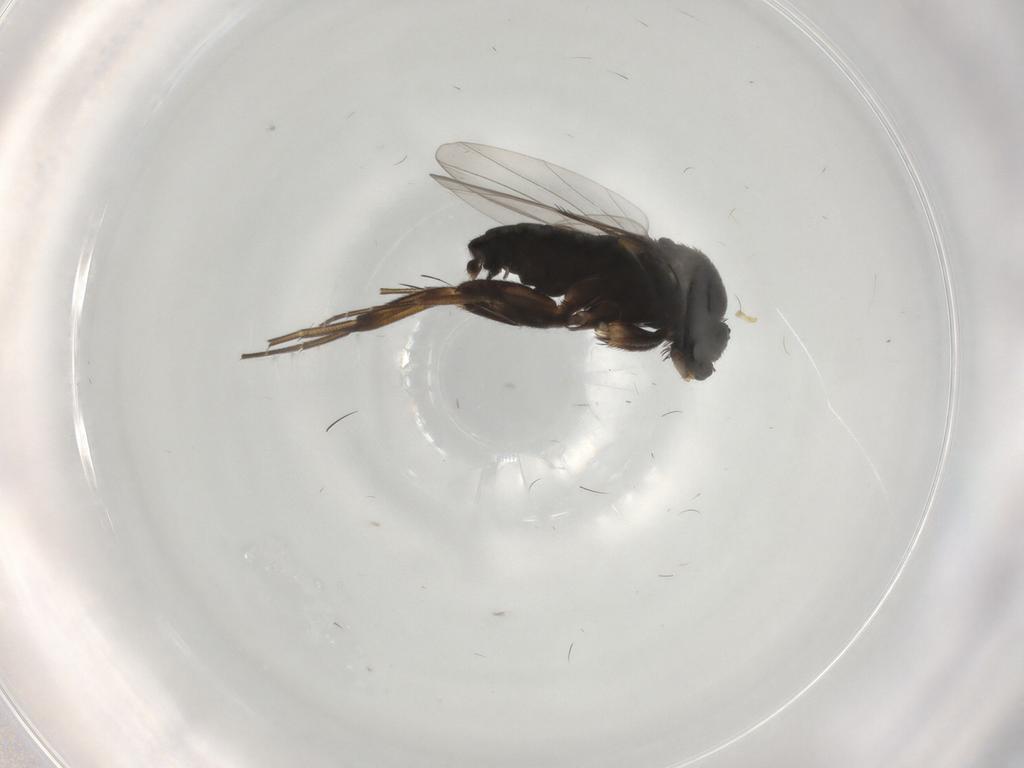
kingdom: Animalia
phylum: Arthropoda
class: Insecta
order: Diptera
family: Phoridae
